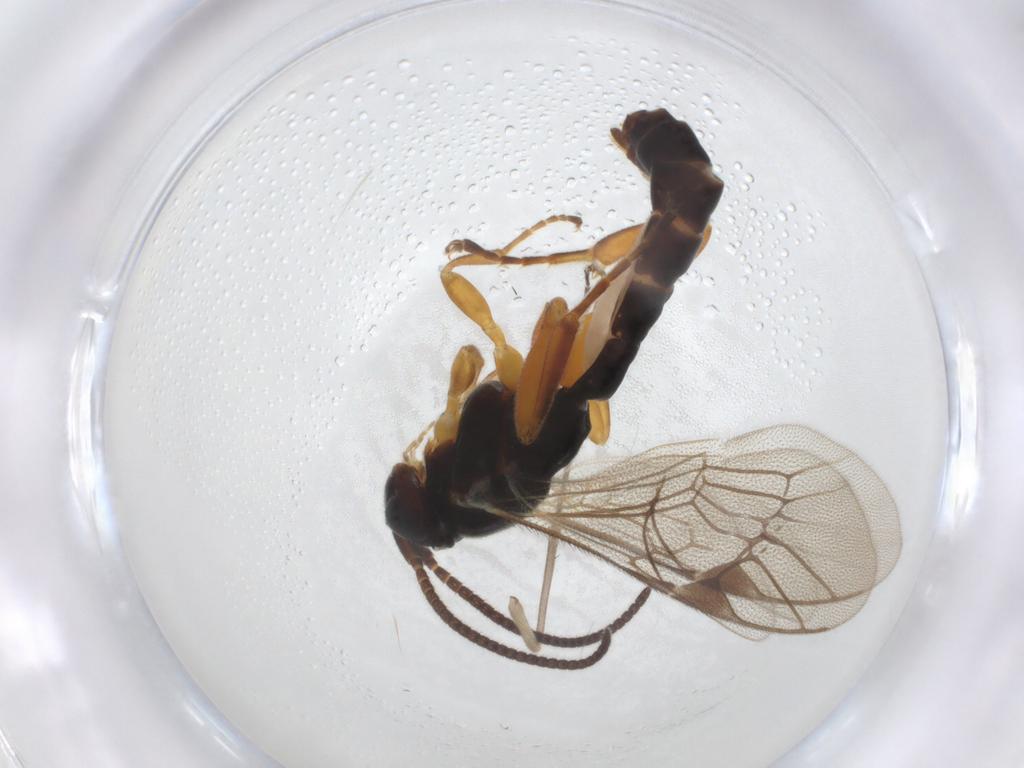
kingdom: Animalia
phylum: Arthropoda
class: Insecta
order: Hymenoptera
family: Ichneumonidae
